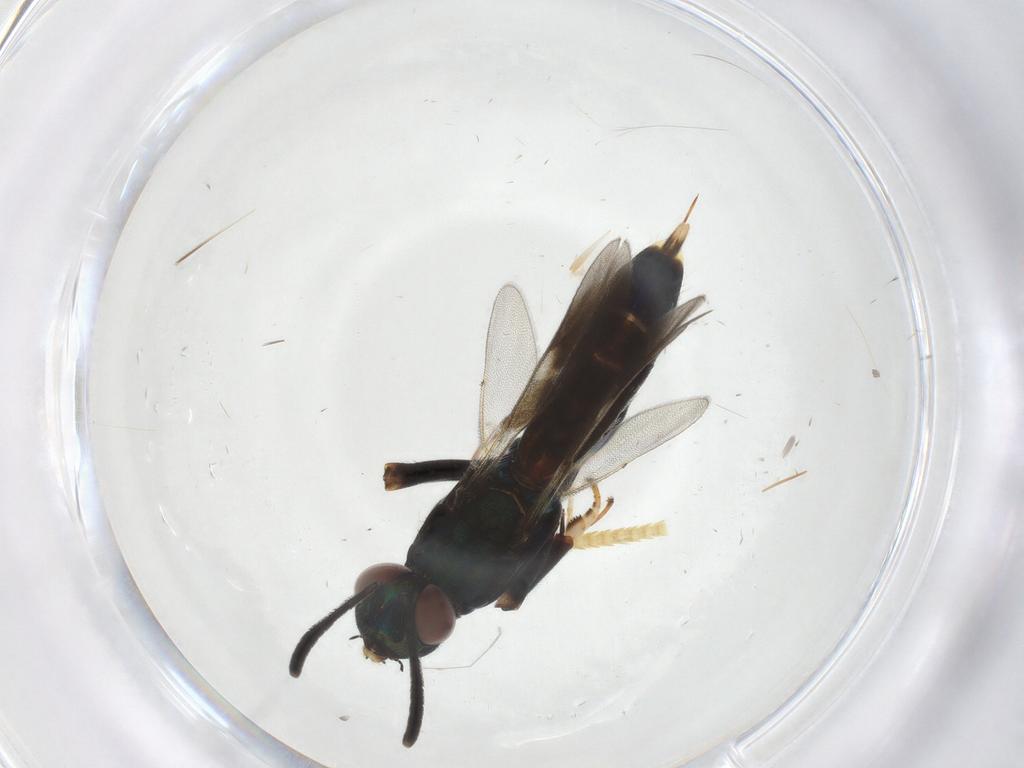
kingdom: Animalia
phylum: Arthropoda
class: Insecta
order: Hymenoptera
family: Pteromalidae
